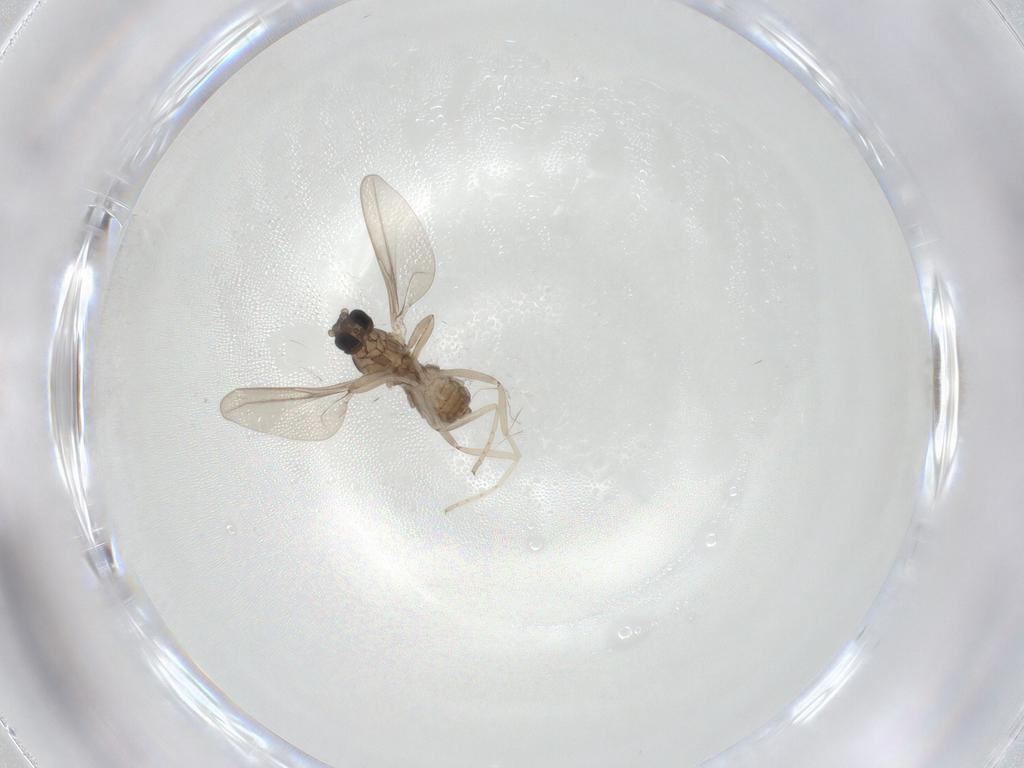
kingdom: Animalia
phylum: Arthropoda
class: Insecta
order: Diptera
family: Cecidomyiidae
